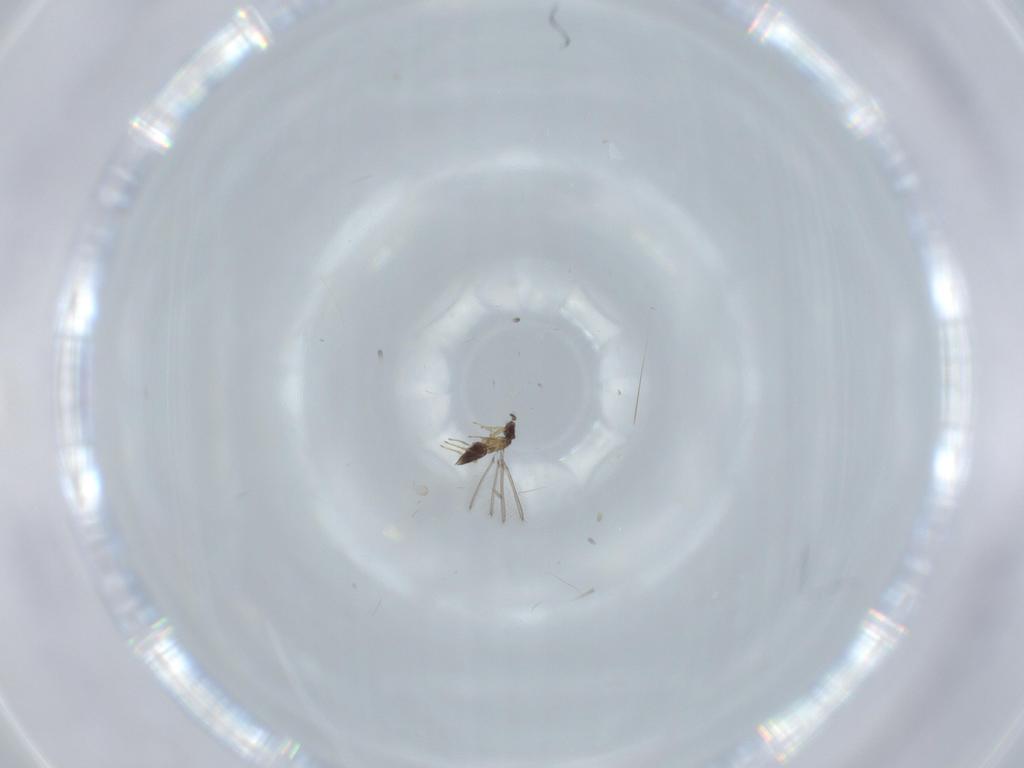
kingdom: Animalia
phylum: Arthropoda
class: Insecta
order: Hymenoptera
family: Mymaridae
